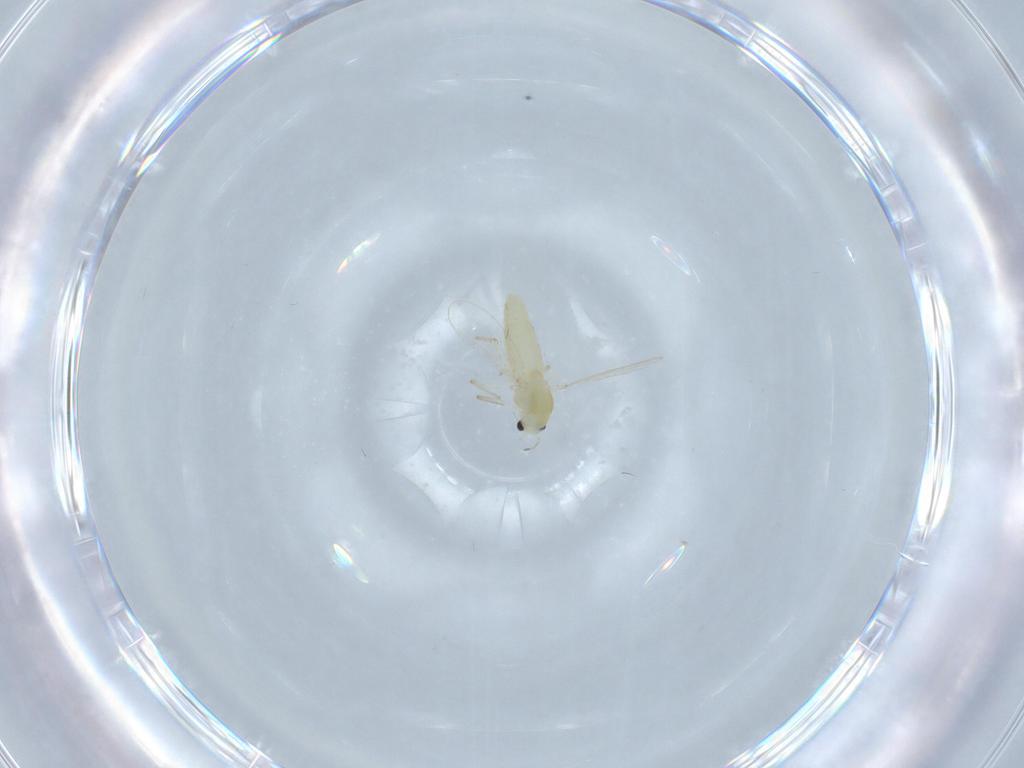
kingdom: Animalia
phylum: Arthropoda
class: Insecta
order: Diptera
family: Chironomidae
